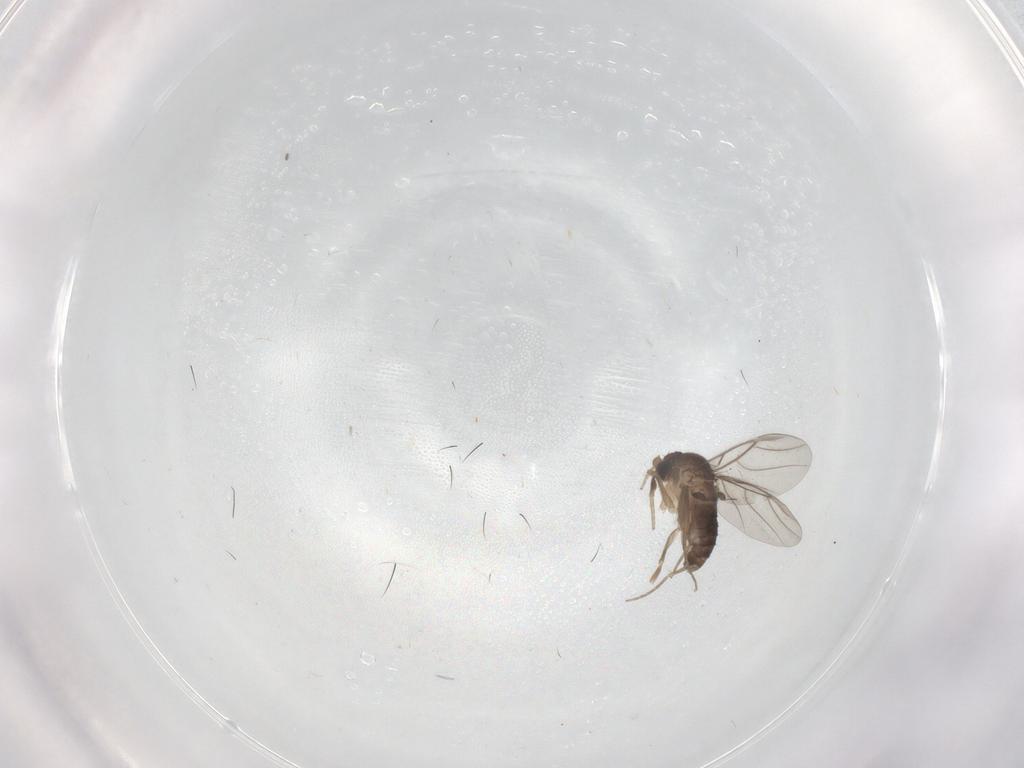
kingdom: Animalia
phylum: Arthropoda
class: Insecta
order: Diptera
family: Phoridae
